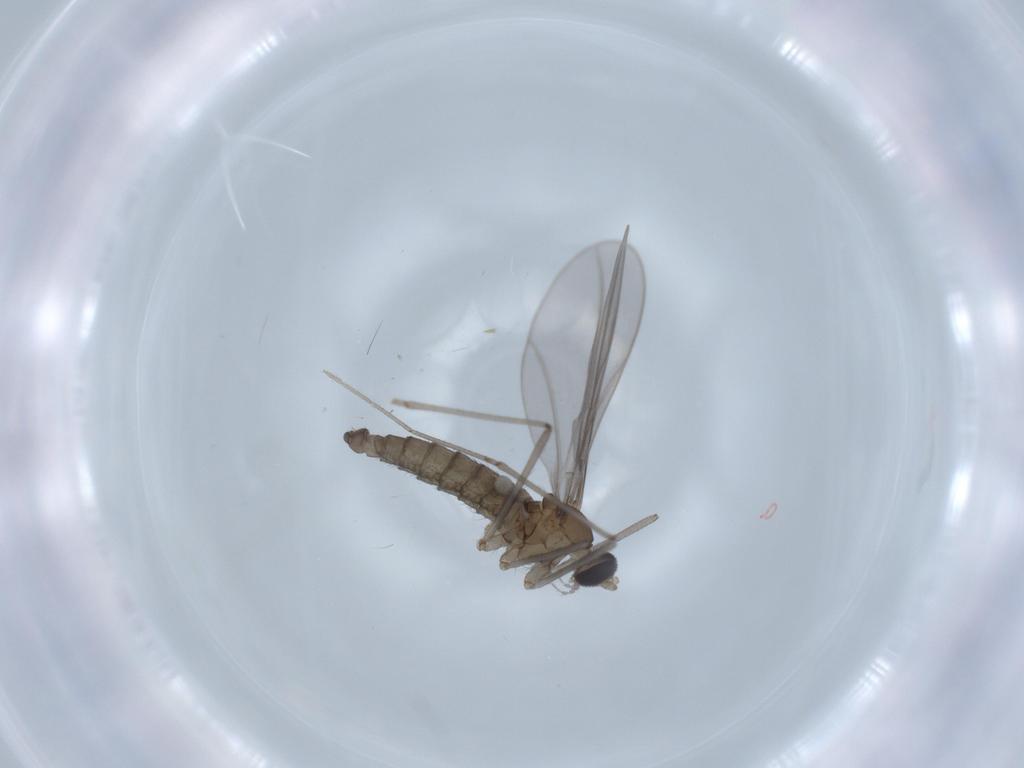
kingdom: Animalia
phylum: Arthropoda
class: Insecta
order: Diptera
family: Cecidomyiidae
